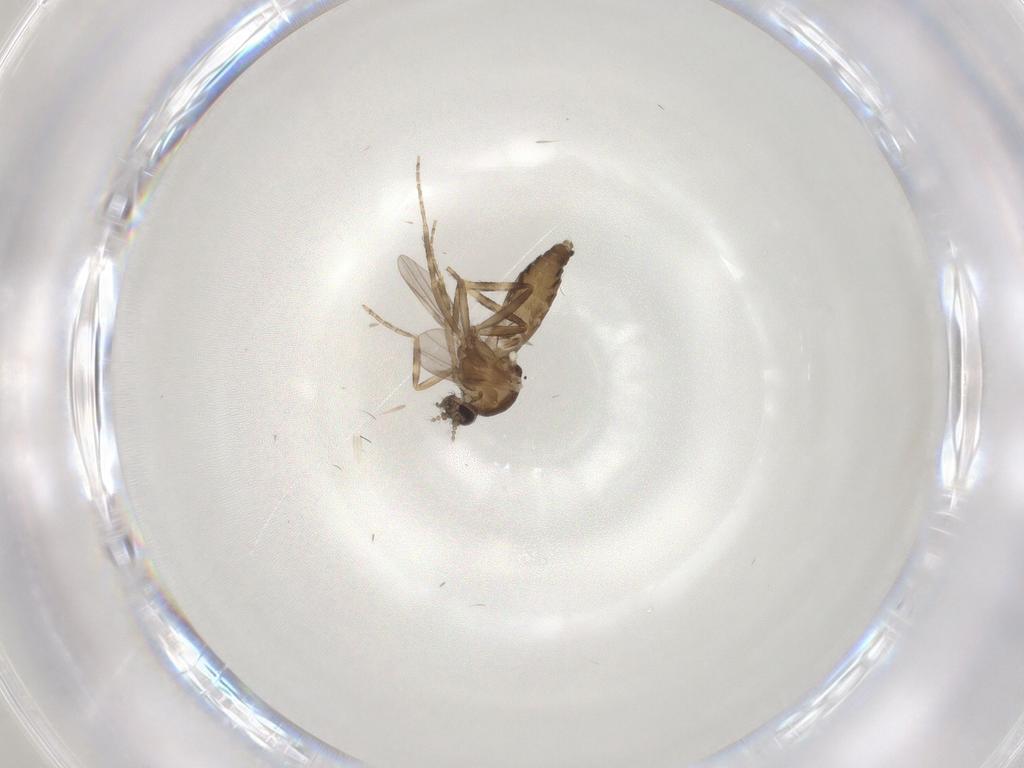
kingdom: Animalia
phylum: Arthropoda
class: Insecta
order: Diptera
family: Ceratopogonidae
